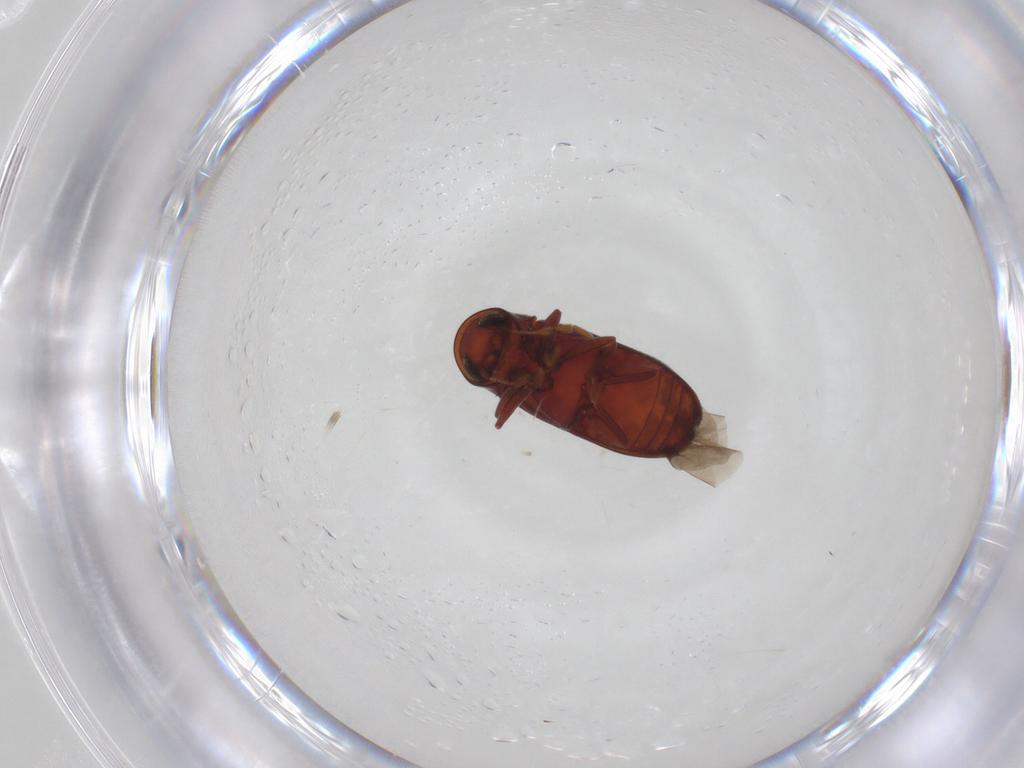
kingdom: Animalia
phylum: Arthropoda
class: Insecta
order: Coleoptera
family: Ptinidae
